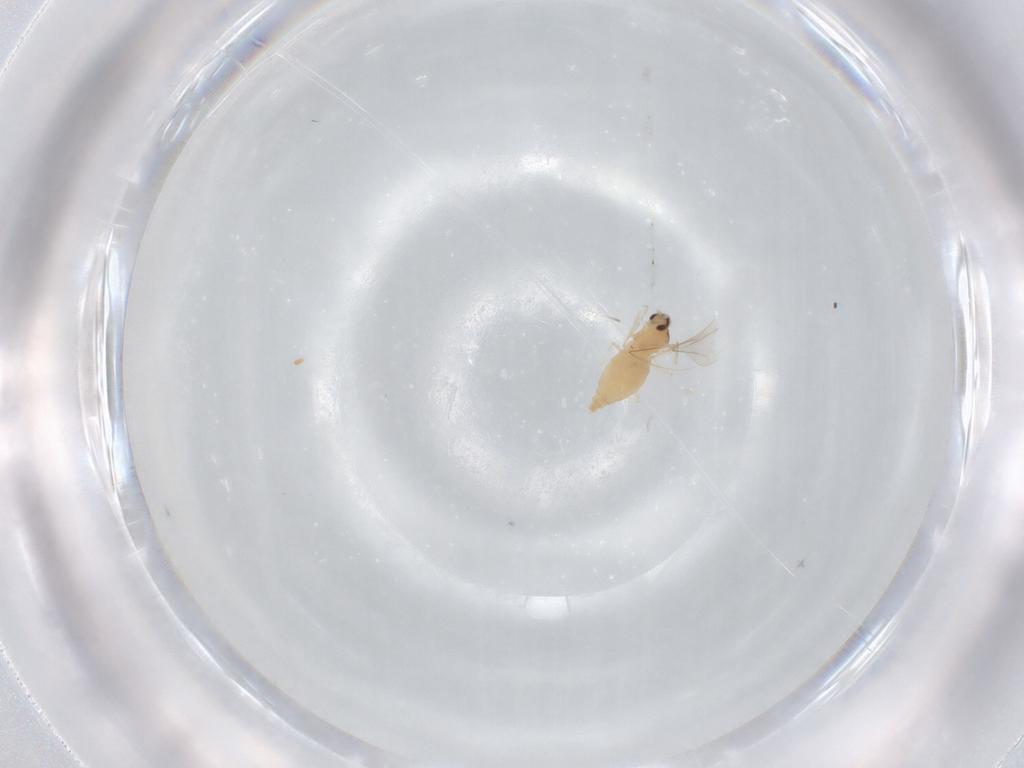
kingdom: Animalia
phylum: Arthropoda
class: Insecta
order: Diptera
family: Cecidomyiidae
